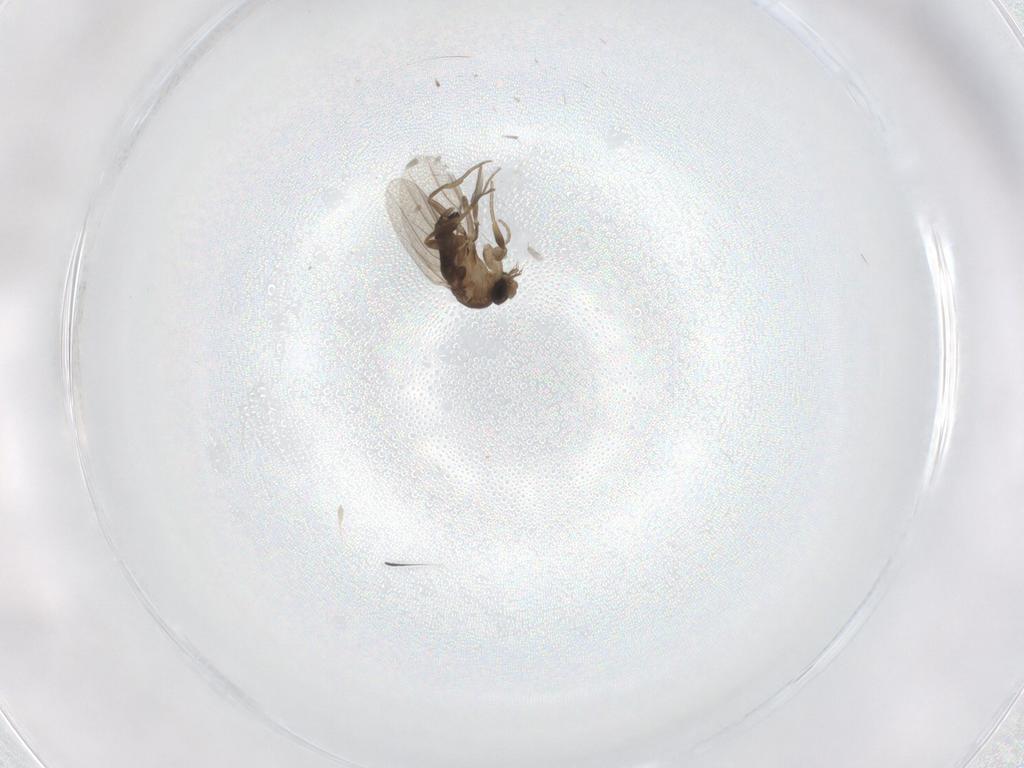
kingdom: Animalia
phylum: Arthropoda
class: Insecta
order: Diptera
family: Phoridae
